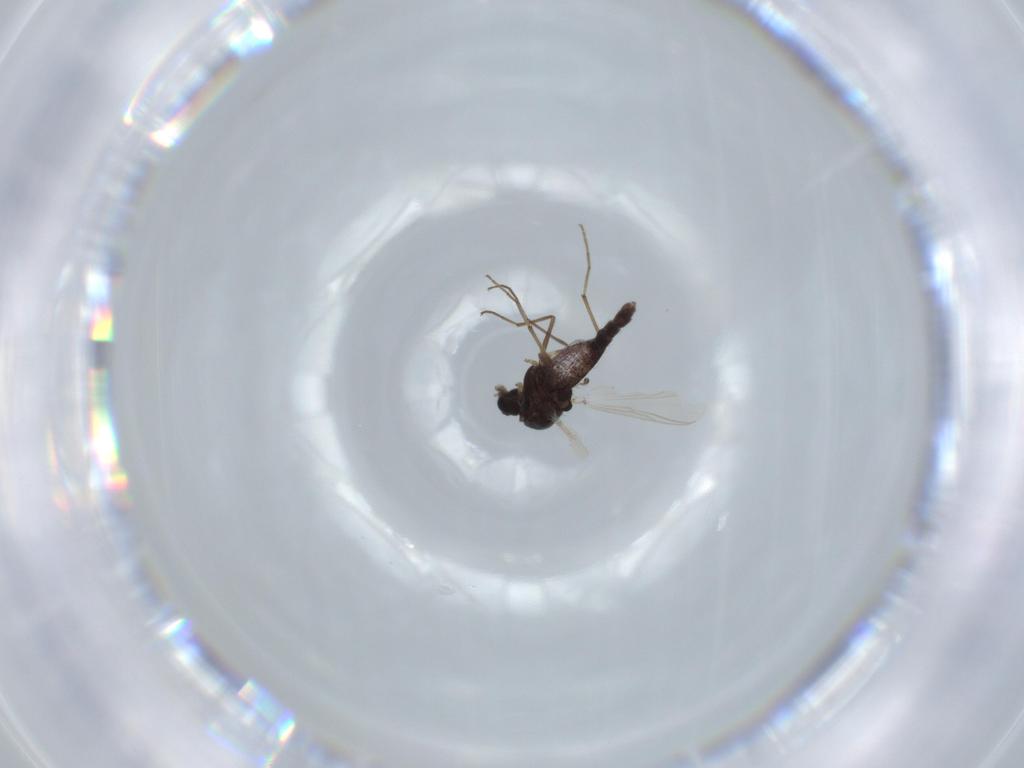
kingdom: Animalia
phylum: Arthropoda
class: Insecta
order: Diptera
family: Chironomidae
